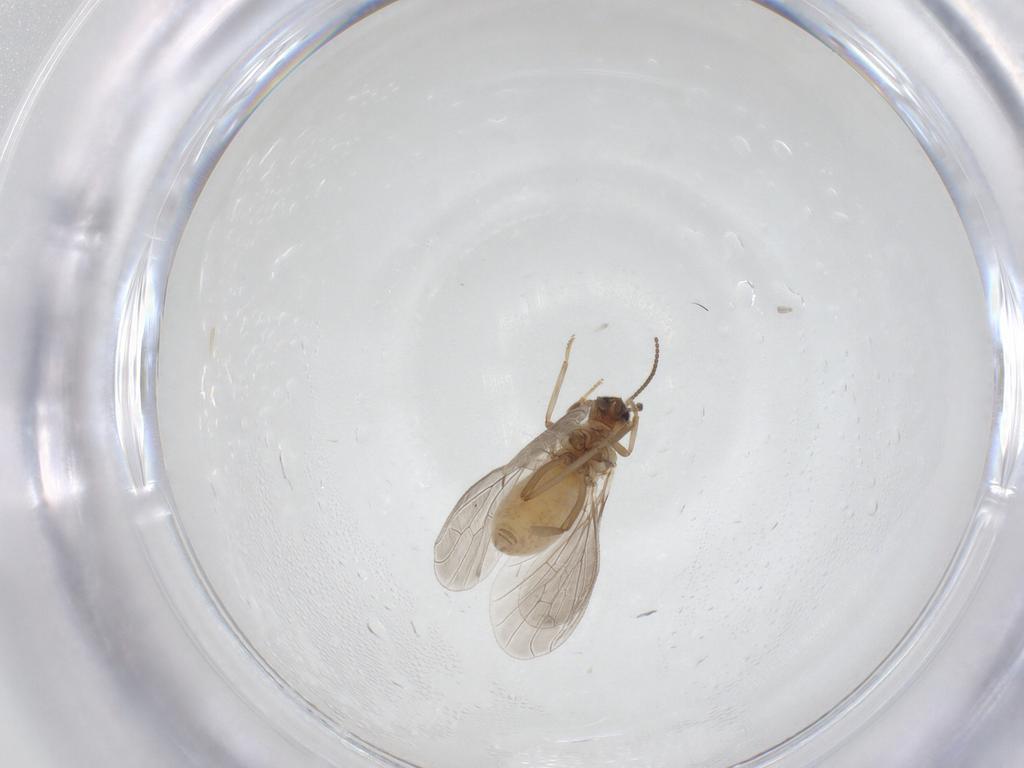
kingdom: Animalia
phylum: Arthropoda
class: Insecta
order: Neuroptera
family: Coniopterygidae
